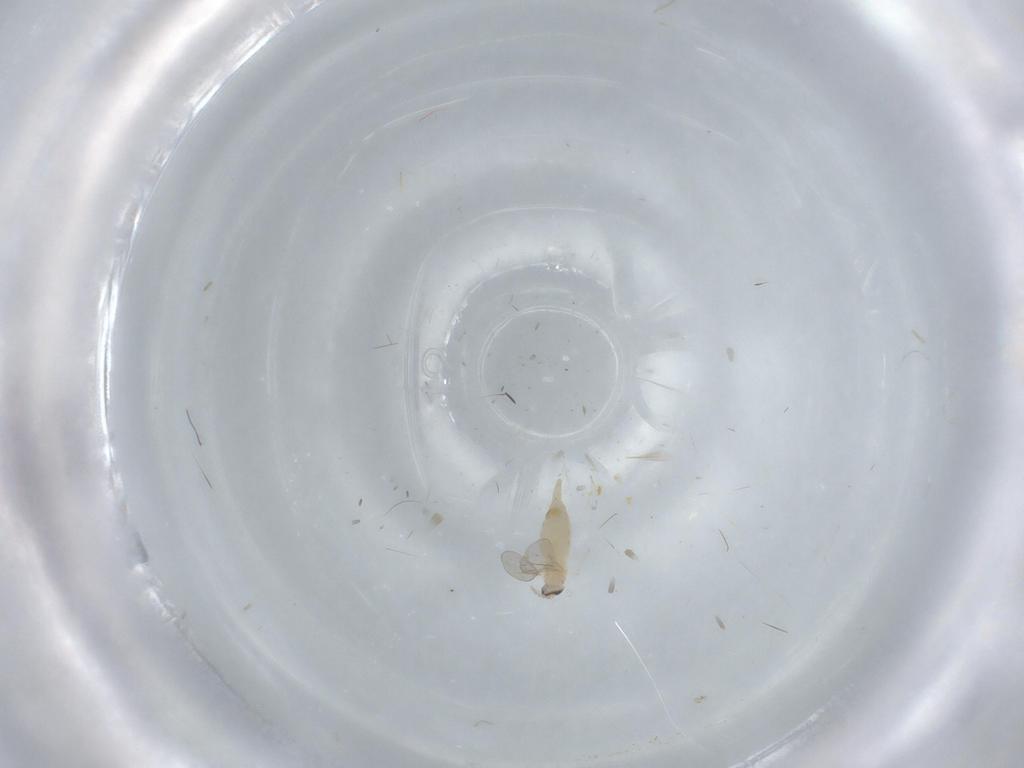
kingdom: Animalia
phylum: Arthropoda
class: Insecta
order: Diptera
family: Cecidomyiidae
